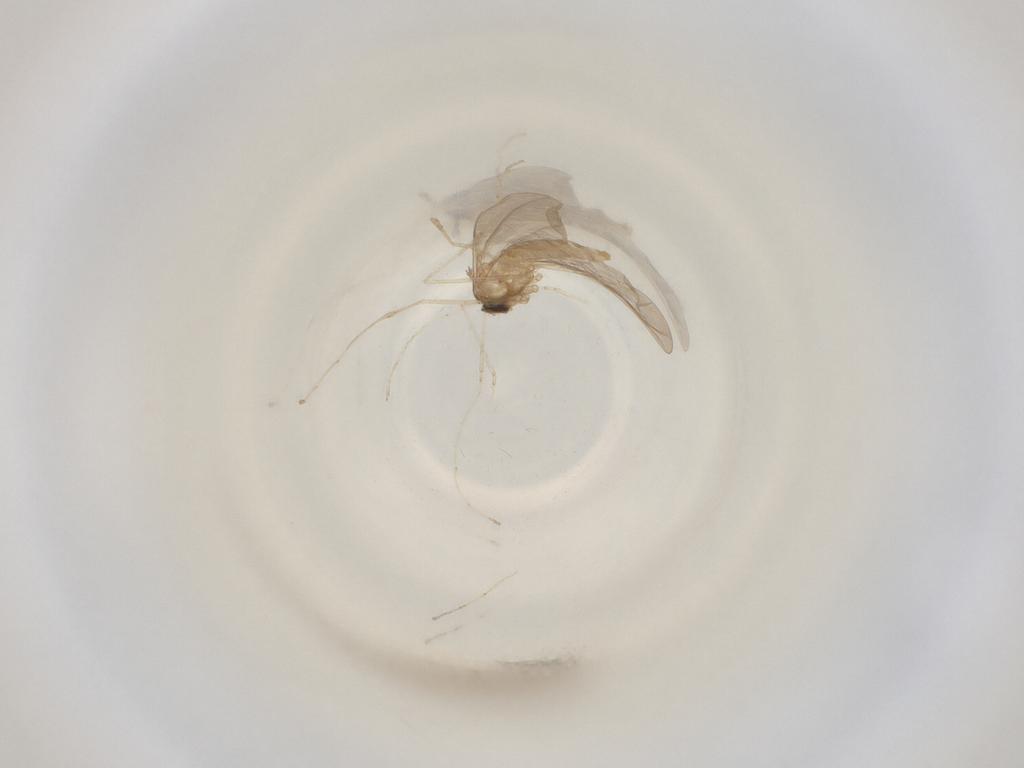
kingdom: Animalia
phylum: Arthropoda
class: Insecta
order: Diptera
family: Cecidomyiidae
